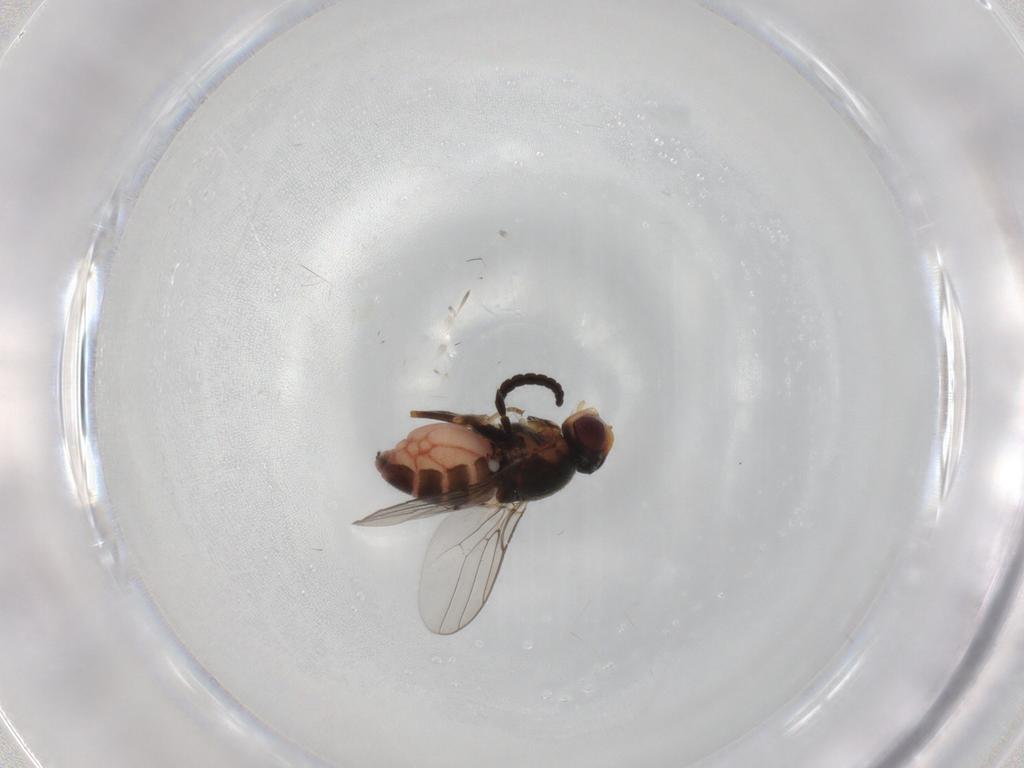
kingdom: Animalia
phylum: Arthropoda
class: Insecta
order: Diptera
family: Chloropidae
